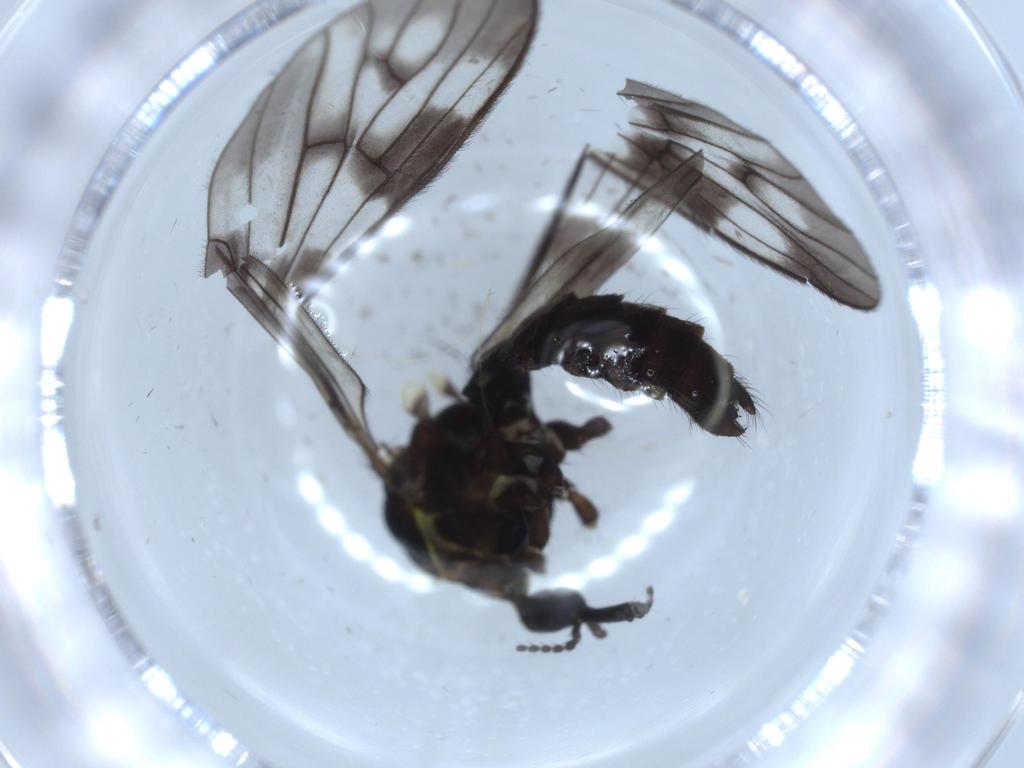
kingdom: Animalia
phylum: Arthropoda
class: Insecta
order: Diptera
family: Limoniidae
